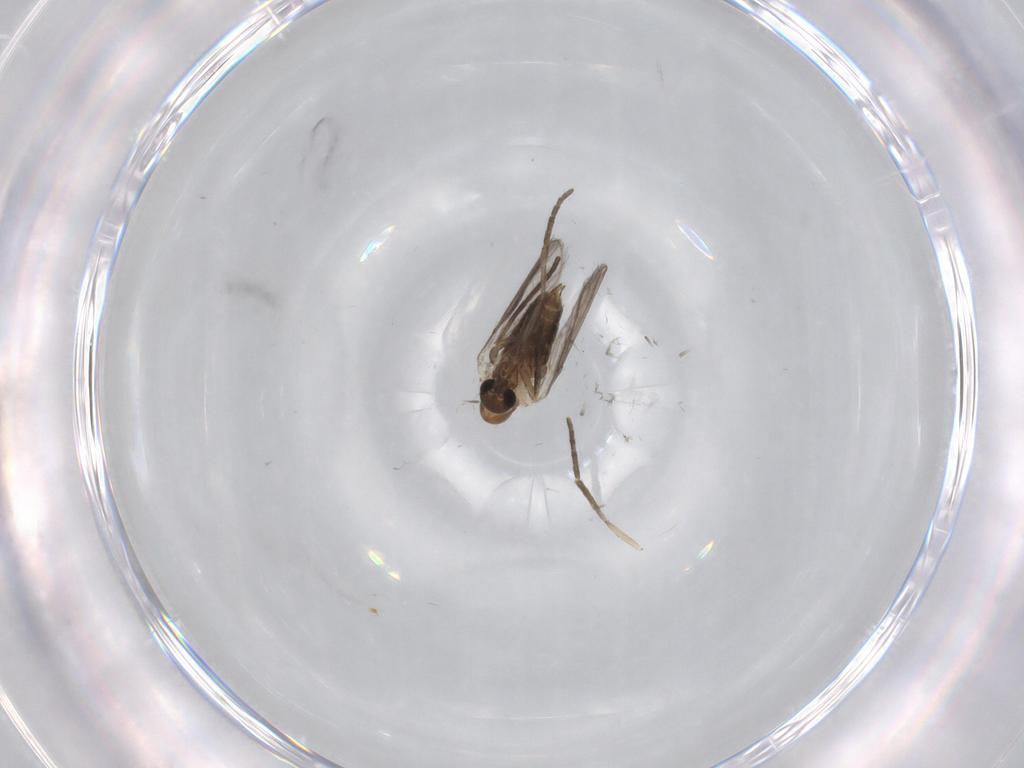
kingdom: Animalia
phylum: Arthropoda
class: Insecta
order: Diptera
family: Chironomidae
